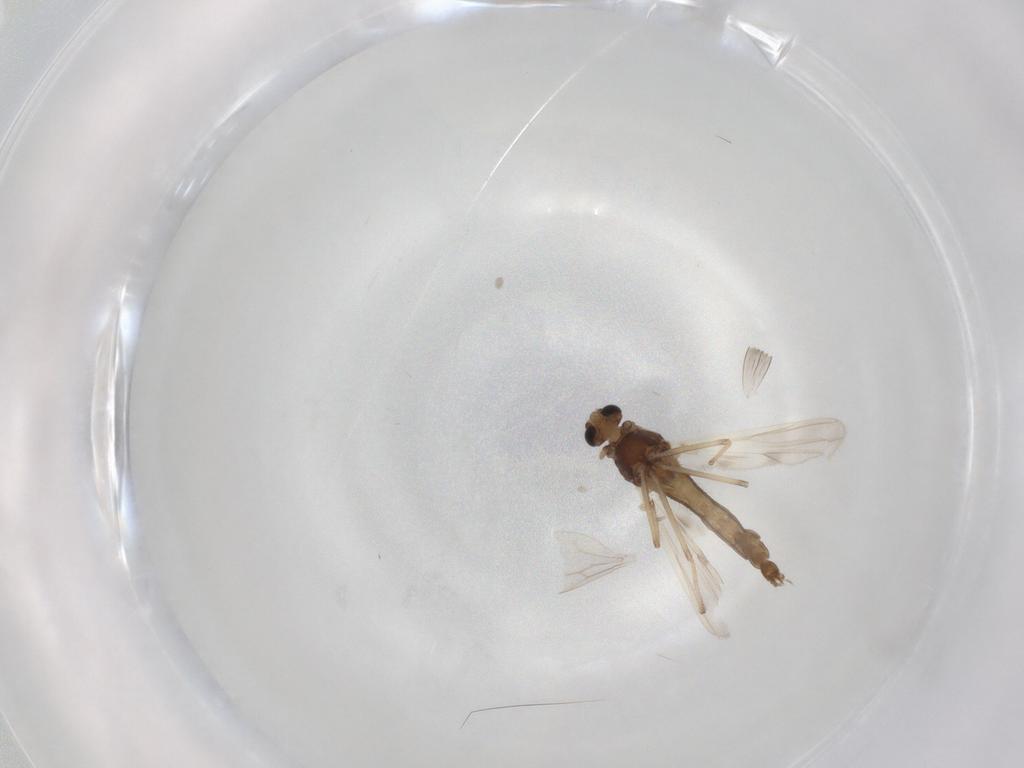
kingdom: Animalia
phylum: Arthropoda
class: Insecta
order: Diptera
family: Chironomidae
